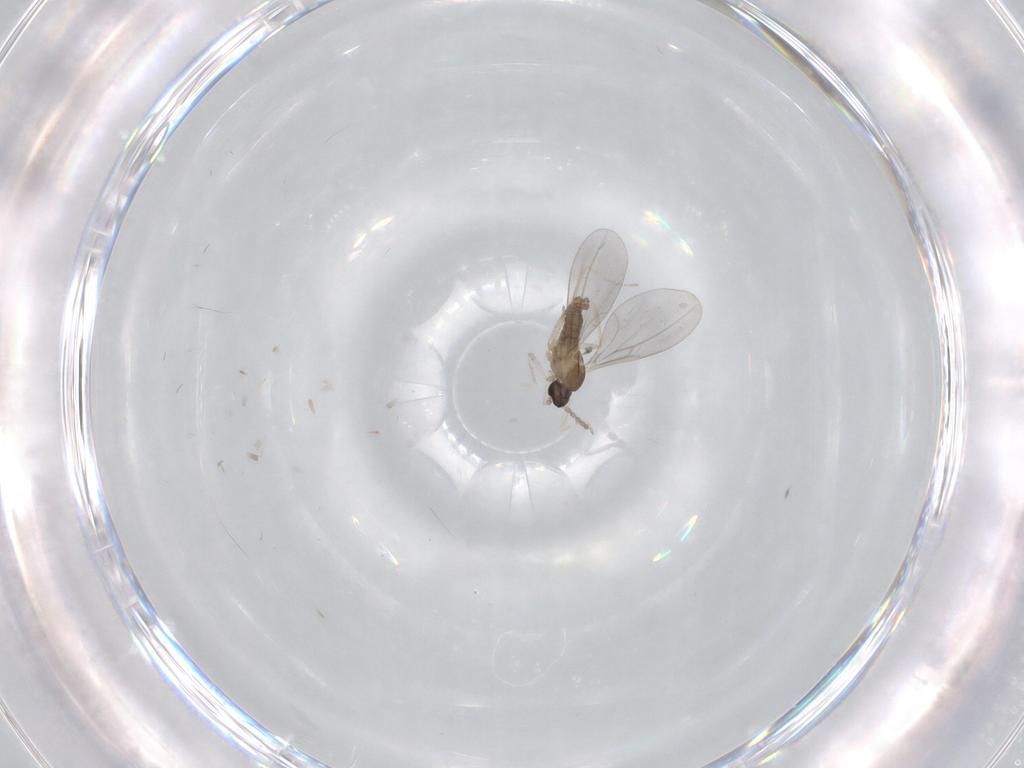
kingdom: Animalia
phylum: Arthropoda
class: Insecta
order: Diptera
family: Cecidomyiidae
